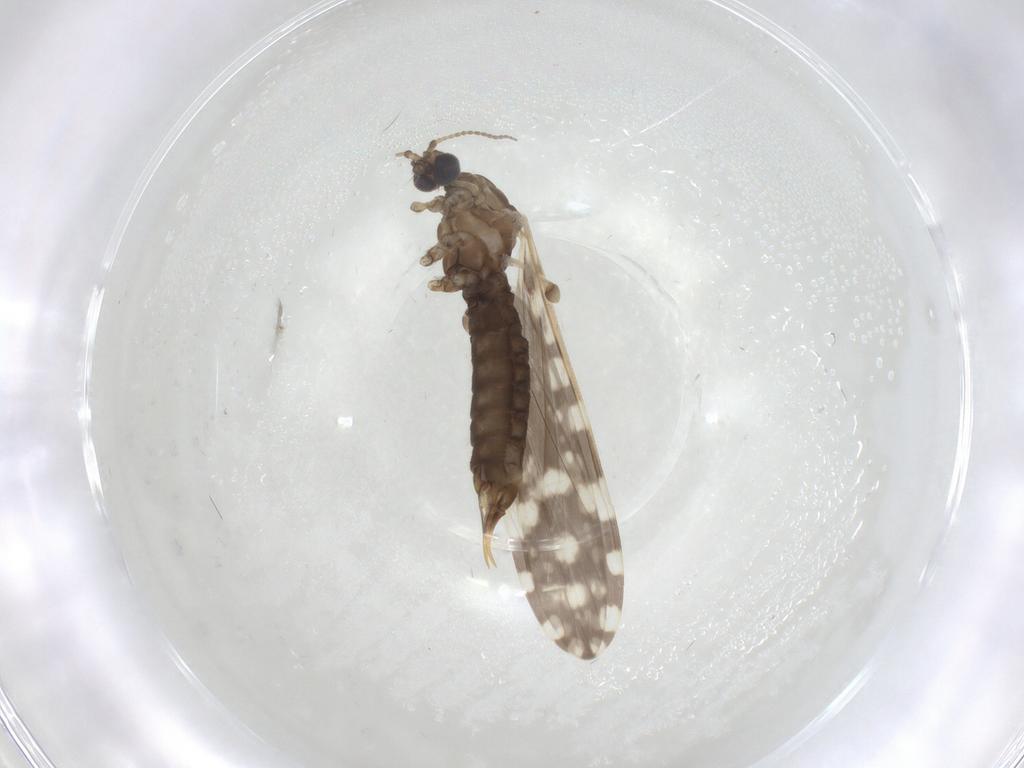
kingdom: Animalia
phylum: Arthropoda
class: Insecta
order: Diptera
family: Limoniidae
